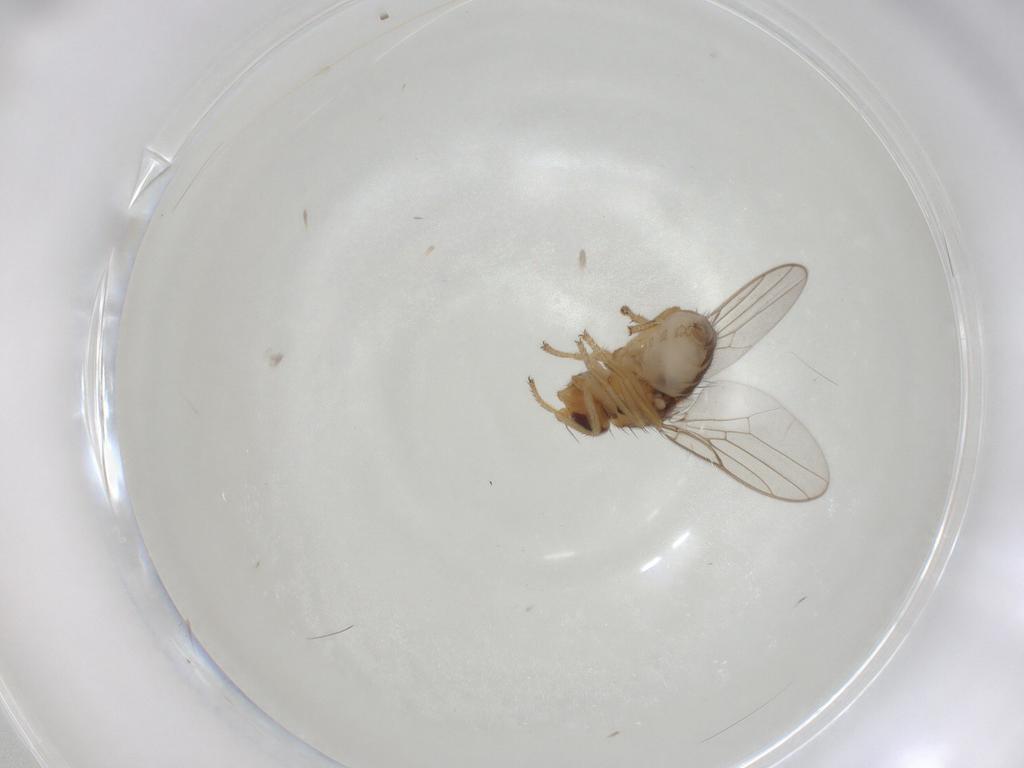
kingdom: Animalia
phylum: Arthropoda
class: Insecta
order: Diptera
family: Chloropidae
